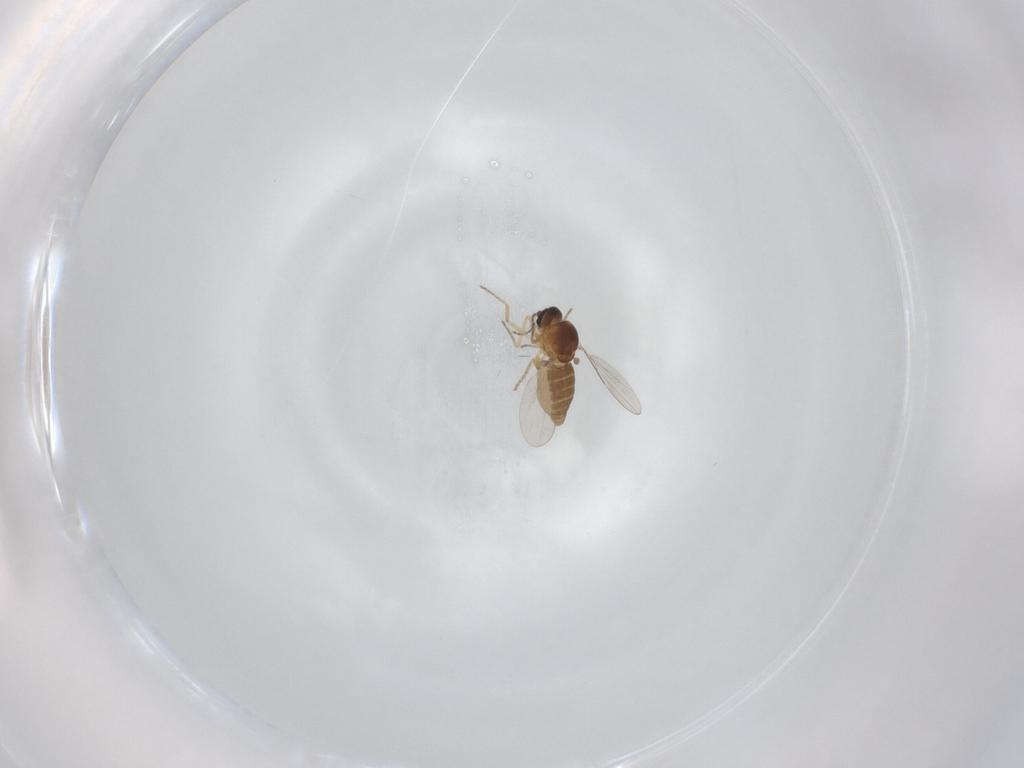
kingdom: Animalia
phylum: Arthropoda
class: Insecta
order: Diptera
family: Ceratopogonidae
